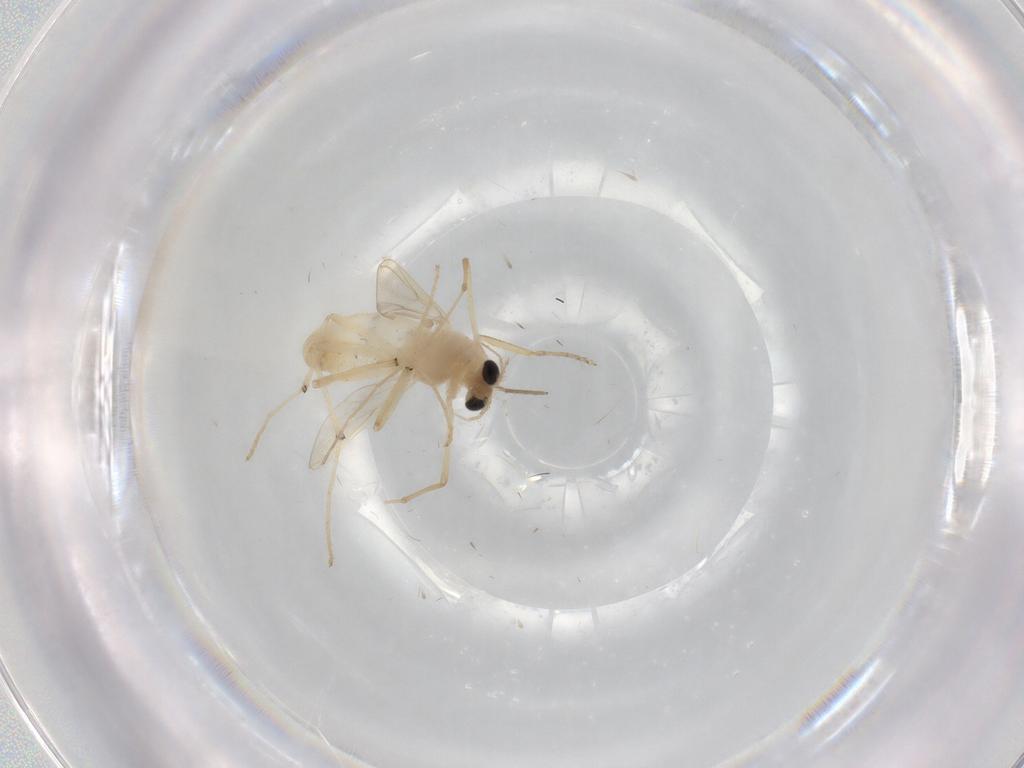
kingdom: Animalia
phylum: Arthropoda
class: Insecta
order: Diptera
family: Chironomidae
